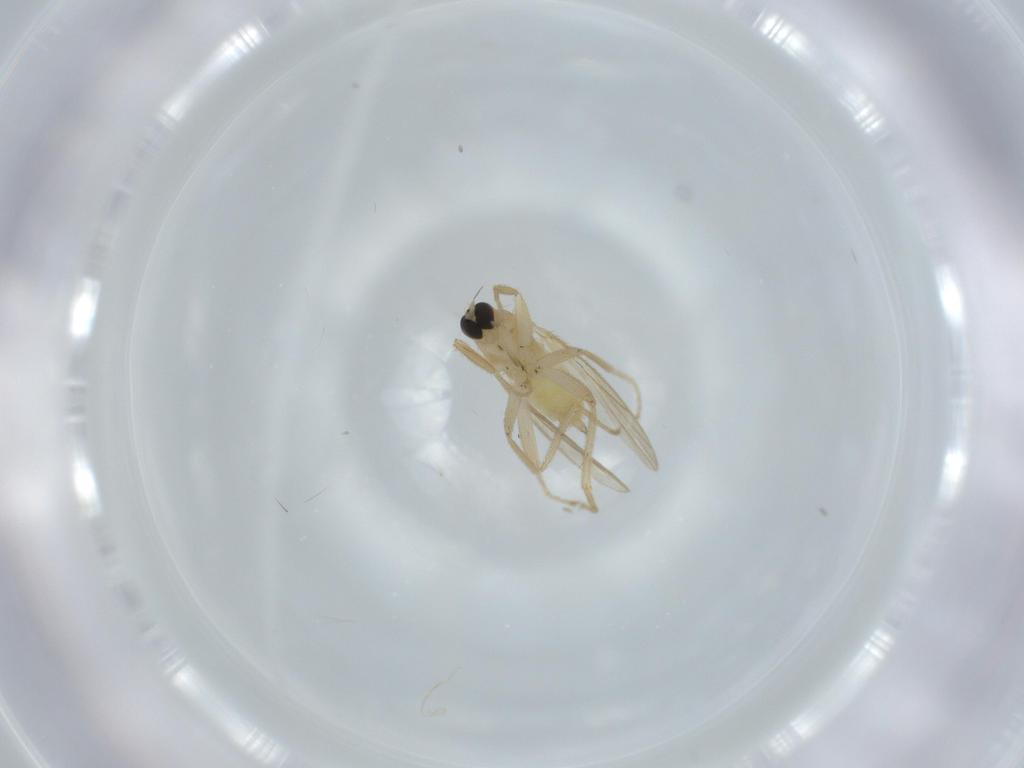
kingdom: Animalia
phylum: Arthropoda
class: Insecta
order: Diptera
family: Hybotidae
